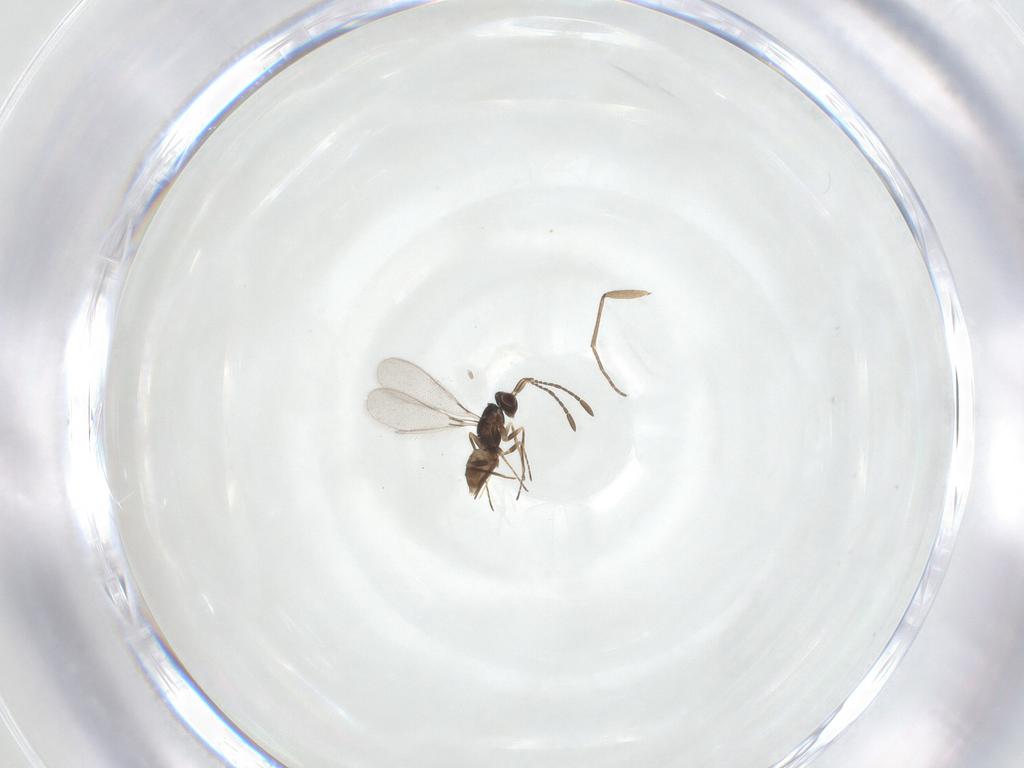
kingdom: Animalia
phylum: Arthropoda
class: Insecta
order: Hymenoptera
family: Mymaridae
